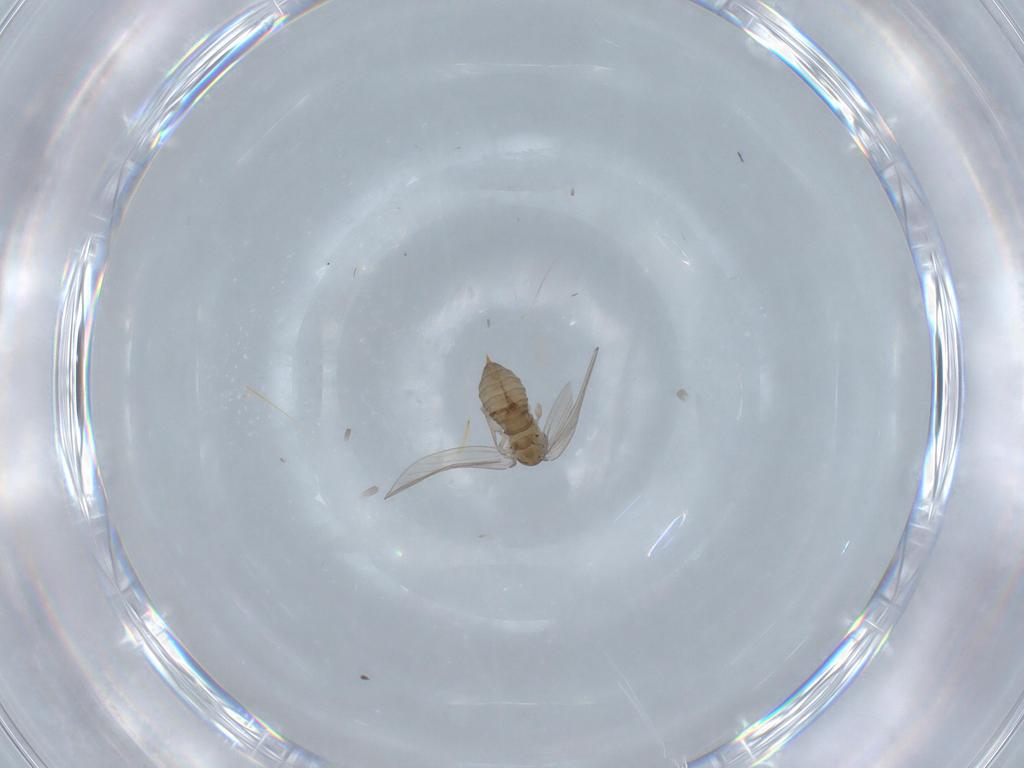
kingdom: Animalia
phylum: Arthropoda
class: Insecta
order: Diptera
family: Psychodidae
